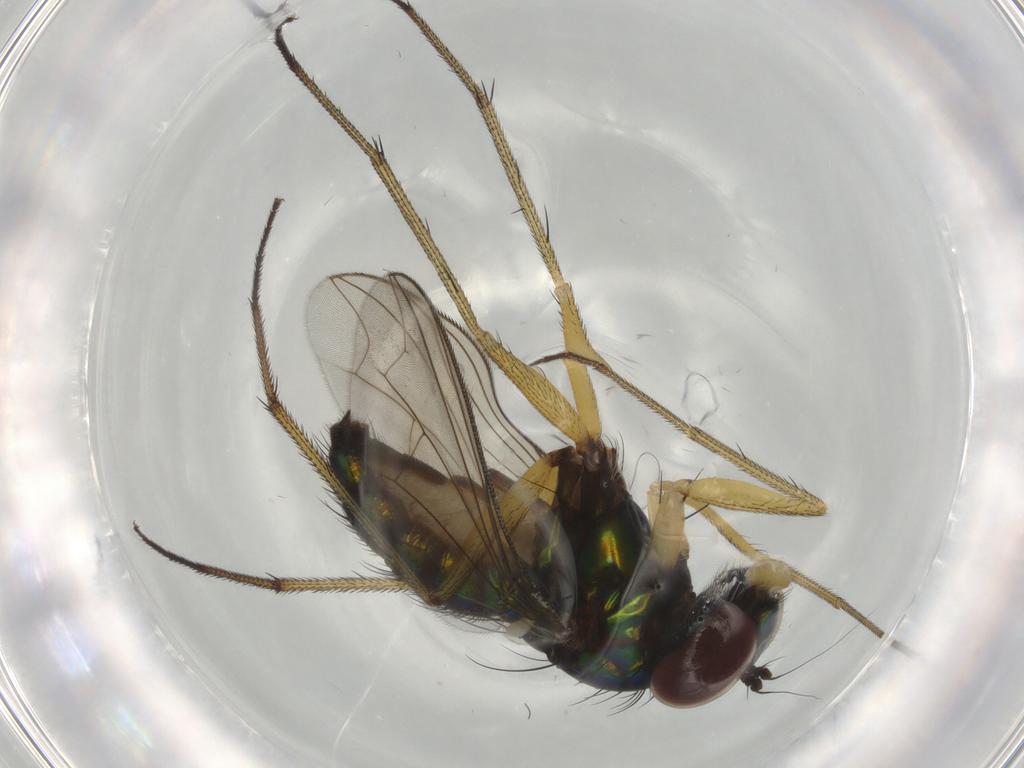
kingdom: Animalia
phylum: Arthropoda
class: Insecta
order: Diptera
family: Dolichopodidae
